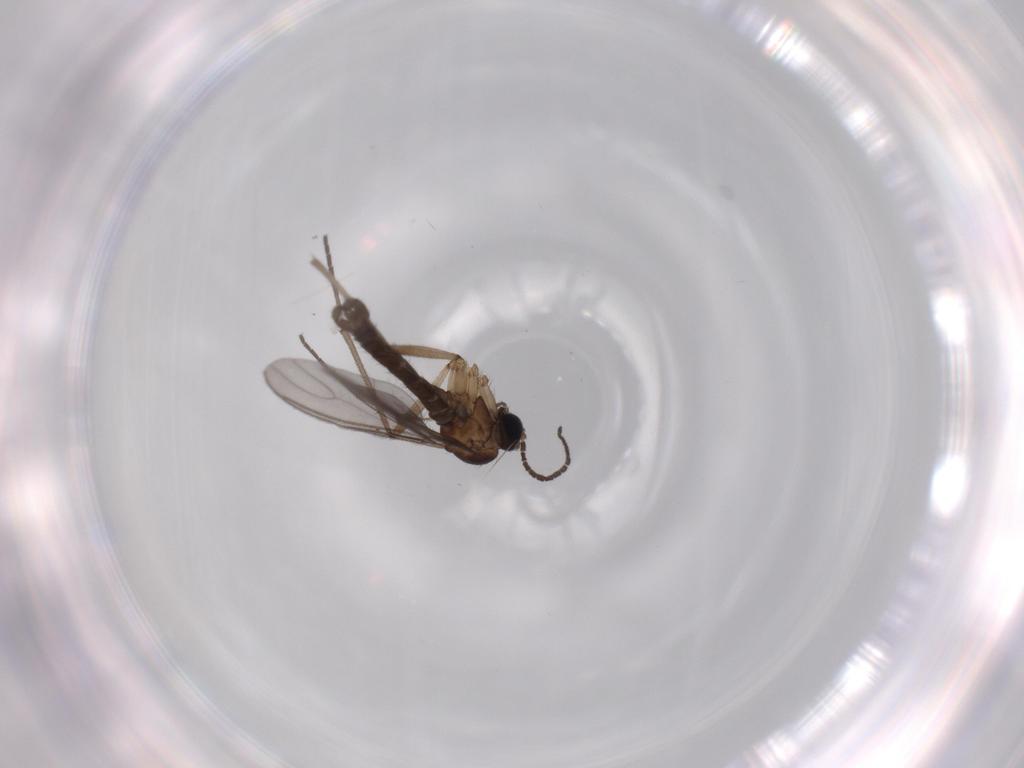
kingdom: Animalia
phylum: Arthropoda
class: Insecta
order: Diptera
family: Sciaridae
